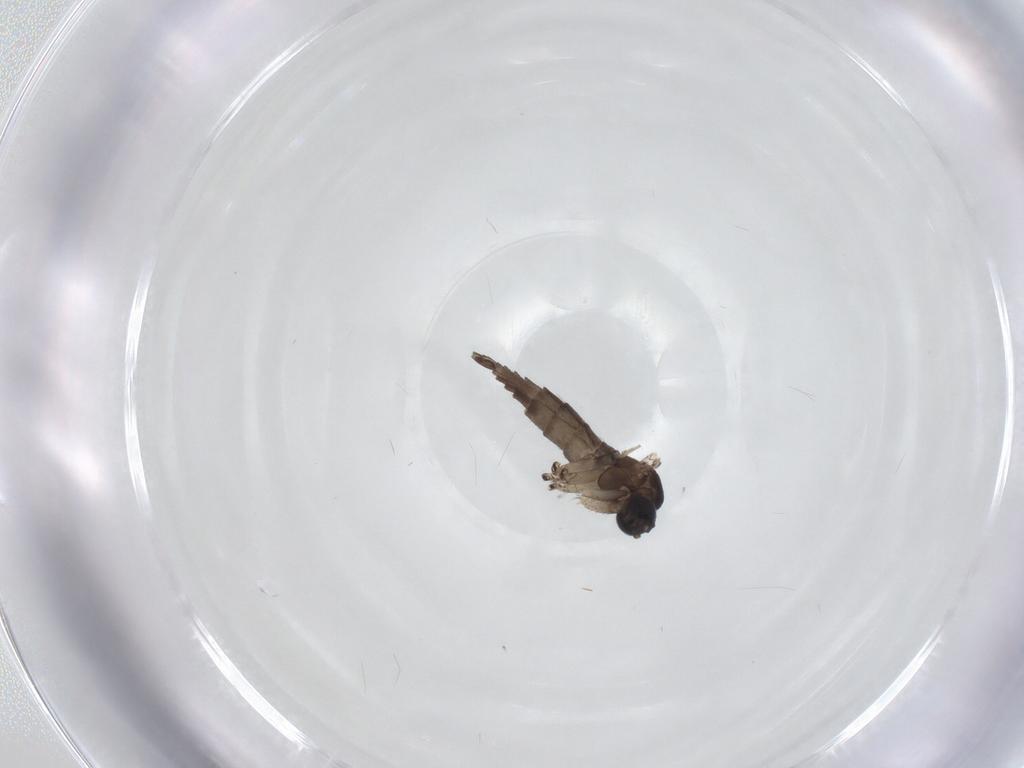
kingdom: Animalia
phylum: Arthropoda
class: Insecta
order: Diptera
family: Sciaridae
